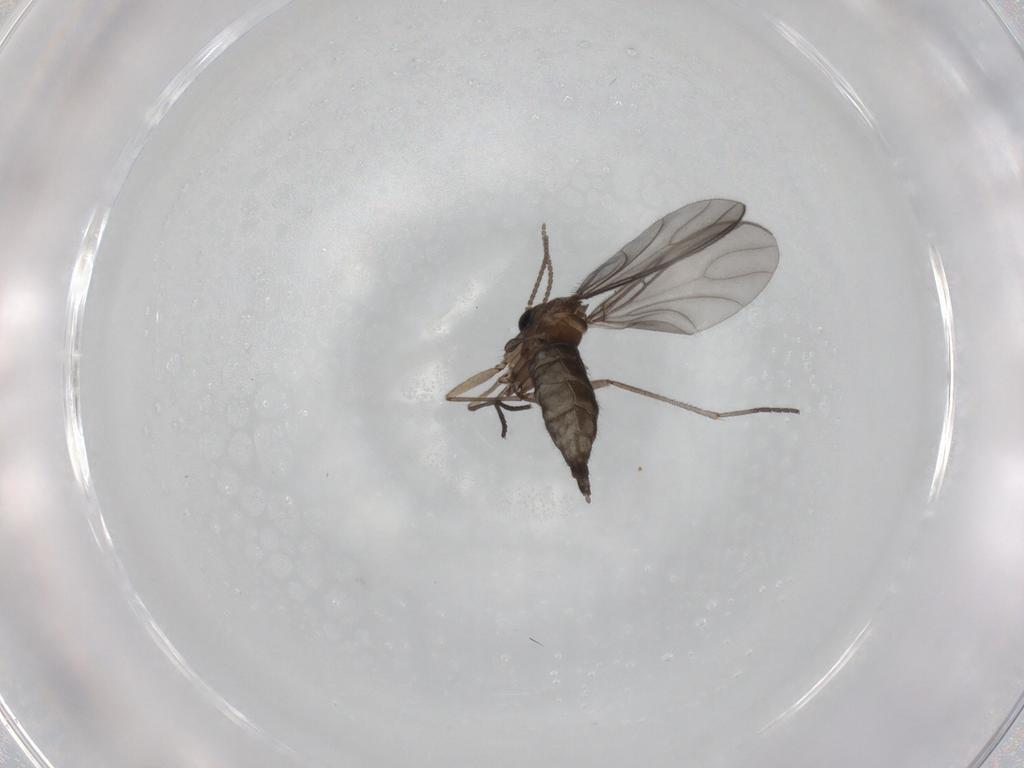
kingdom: Animalia
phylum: Arthropoda
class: Insecta
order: Diptera
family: Sciaridae
